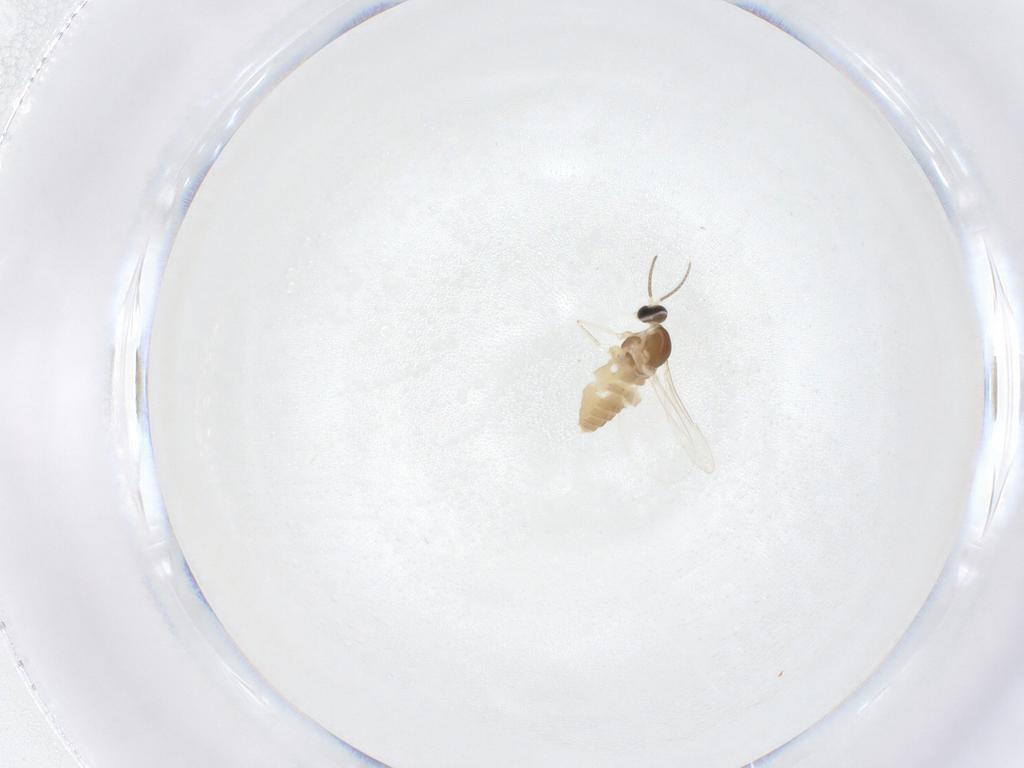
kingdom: Animalia
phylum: Arthropoda
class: Insecta
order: Diptera
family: Cecidomyiidae
